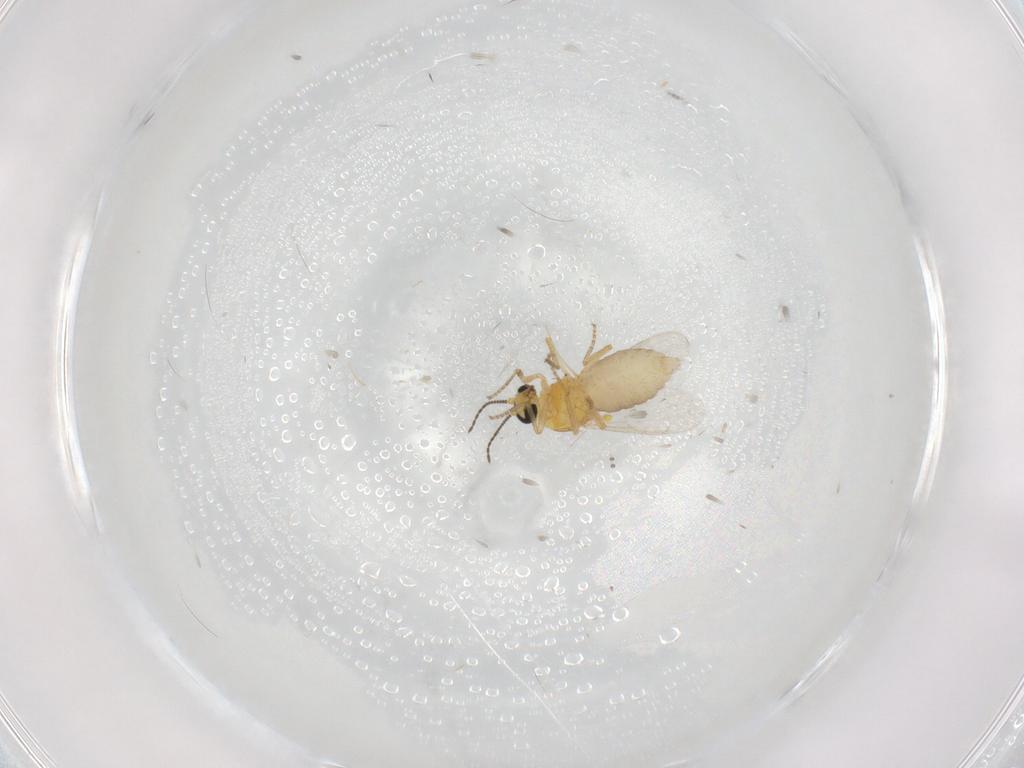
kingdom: Animalia
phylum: Arthropoda
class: Insecta
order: Diptera
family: Ceratopogonidae
